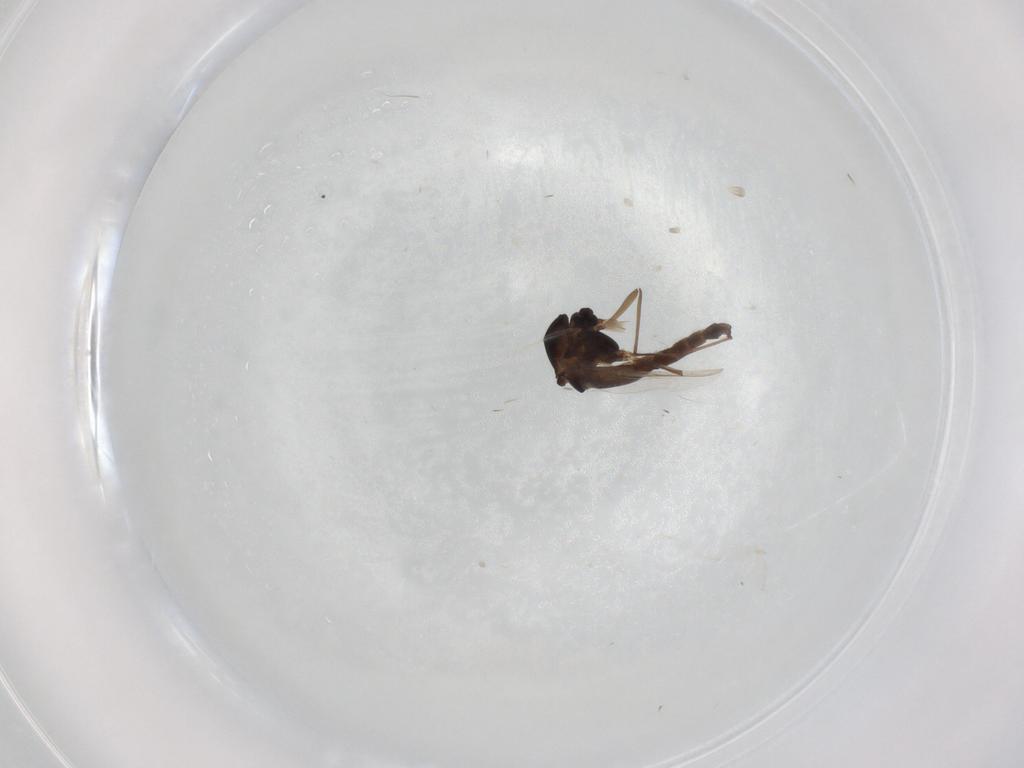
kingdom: Animalia
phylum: Arthropoda
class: Insecta
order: Diptera
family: Chironomidae
